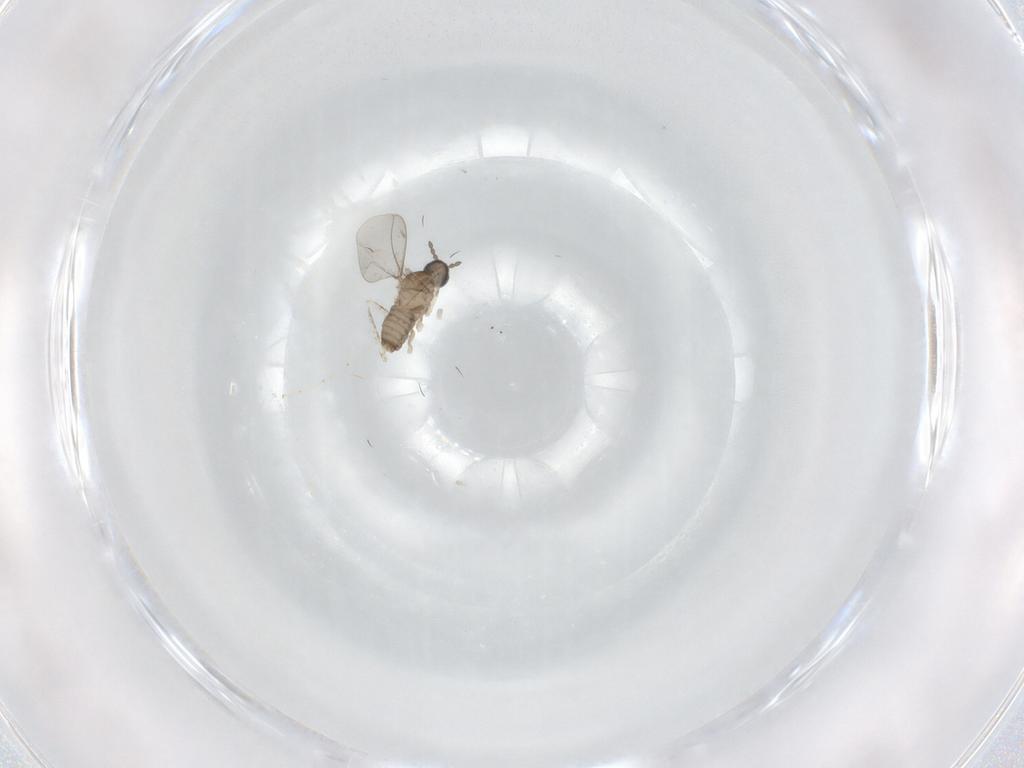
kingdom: Animalia
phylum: Arthropoda
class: Insecta
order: Diptera
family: Cecidomyiidae
